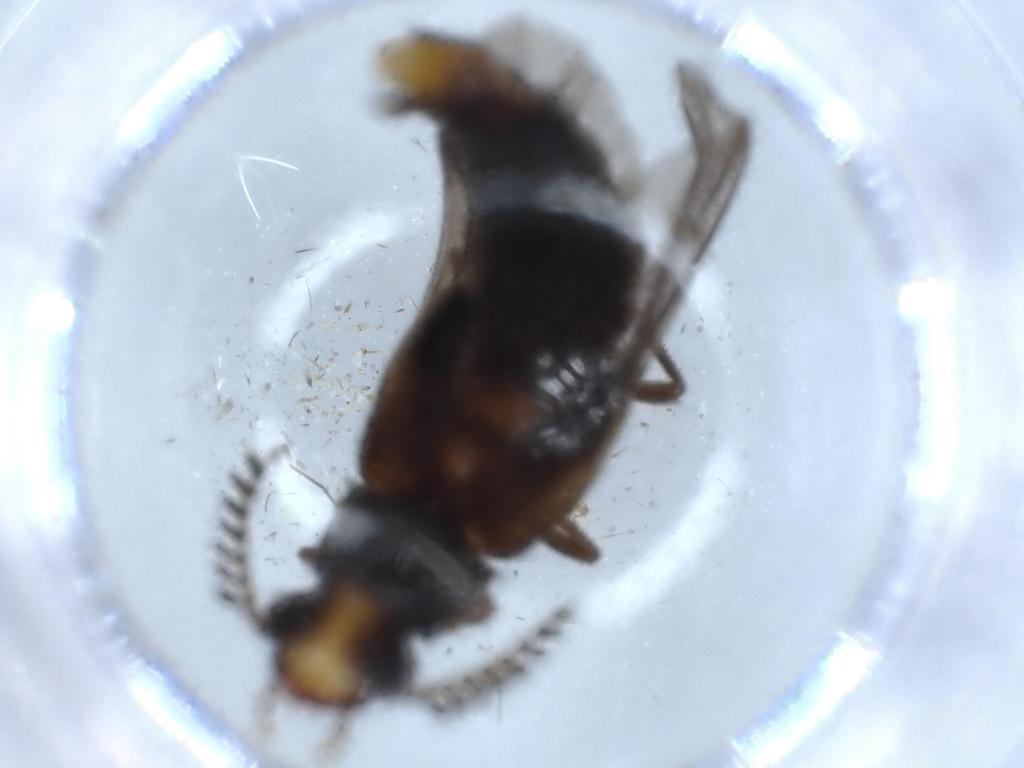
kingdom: Animalia
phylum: Arthropoda
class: Insecta
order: Coleoptera
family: Phengodidae
